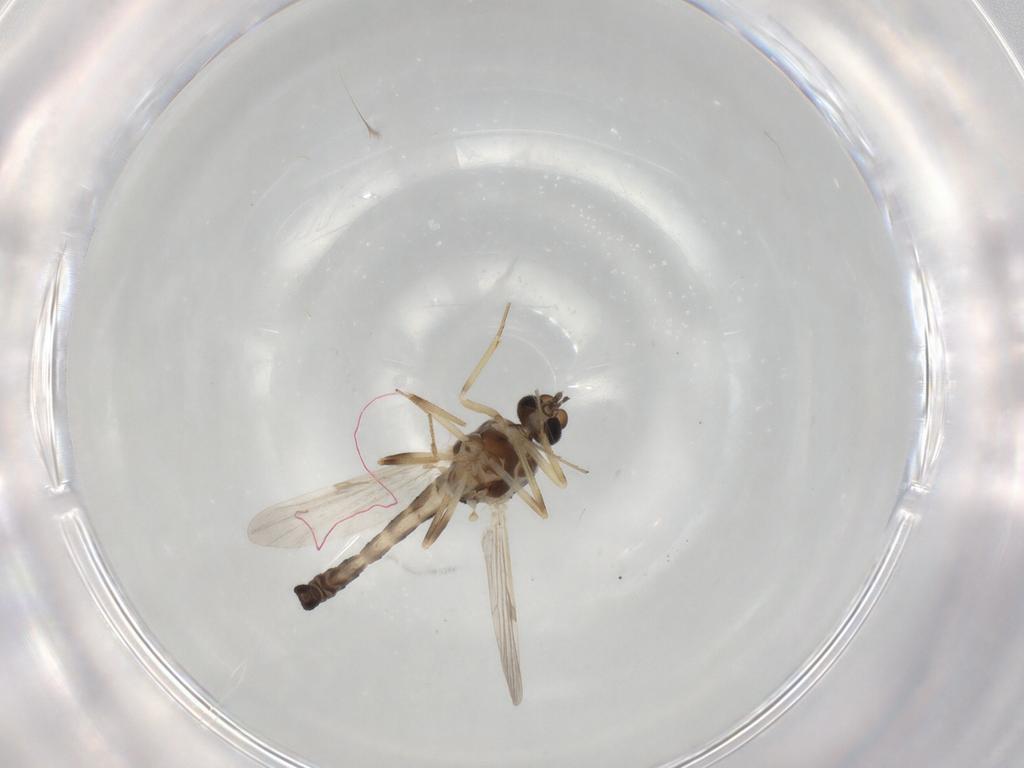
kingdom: Animalia
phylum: Arthropoda
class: Insecta
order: Diptera
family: Ceratopogonidae
